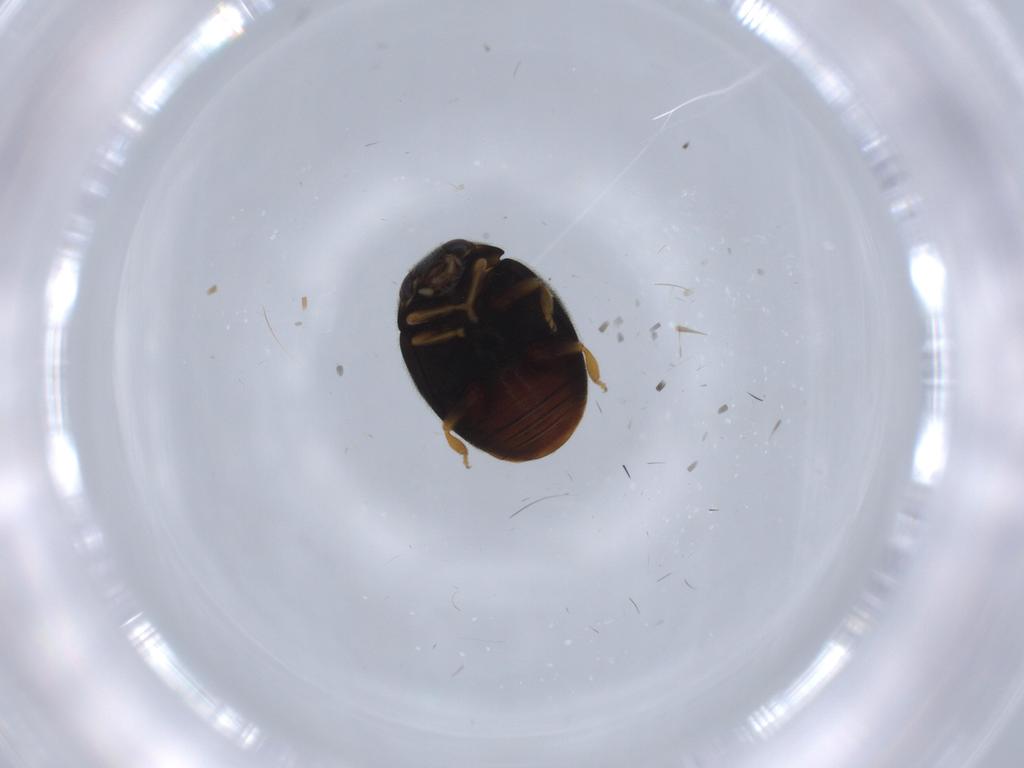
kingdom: Animalia
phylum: Arthropoda
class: Insecta
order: Coleoptera
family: Coccinellidae
